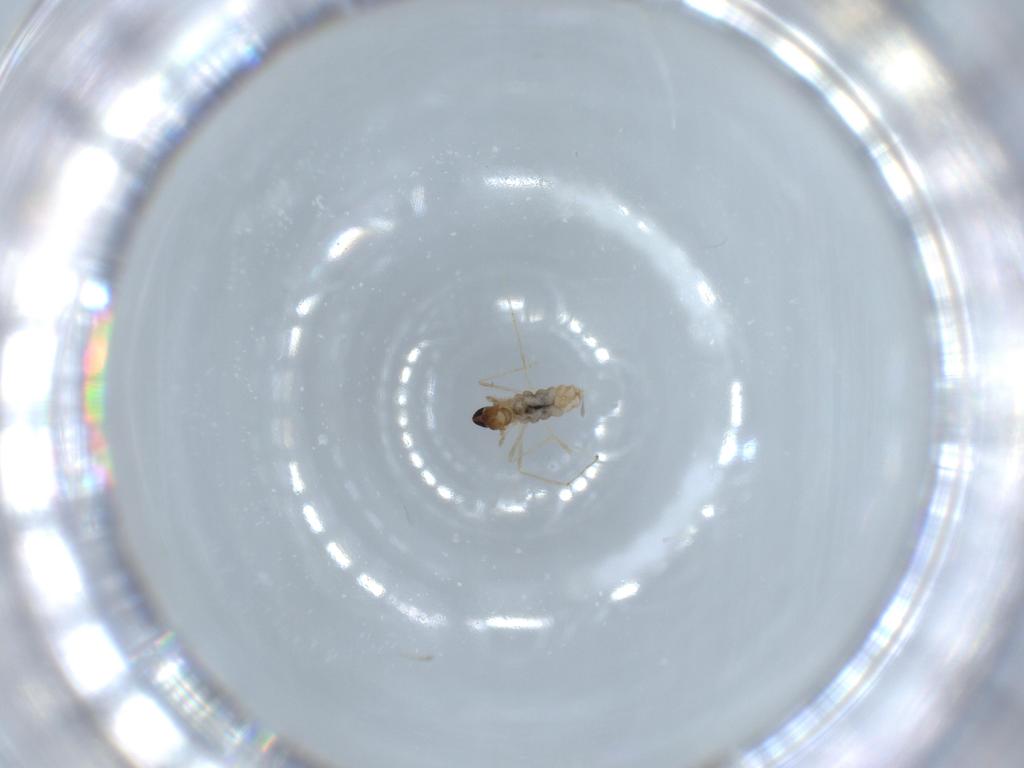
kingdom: Animalia
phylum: Arthropoda
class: Insecta
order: Diptera
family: Cecidomyiidae
